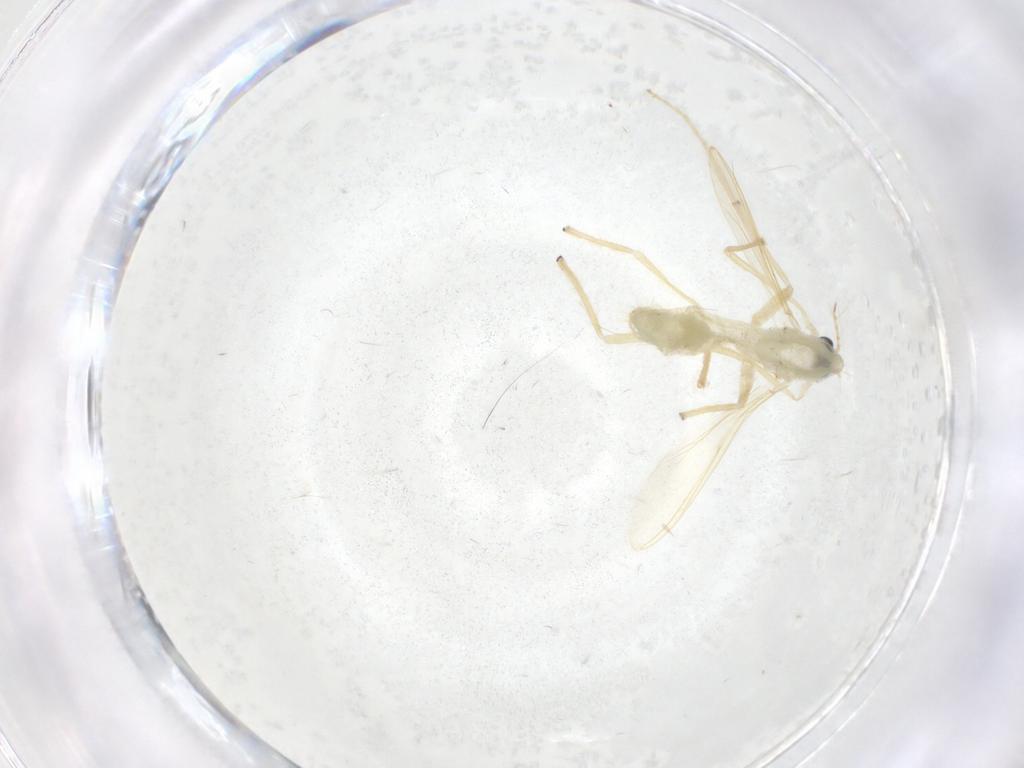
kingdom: Animalia
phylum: Arthropoda
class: Insecta
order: Diptera
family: Chironomidae
